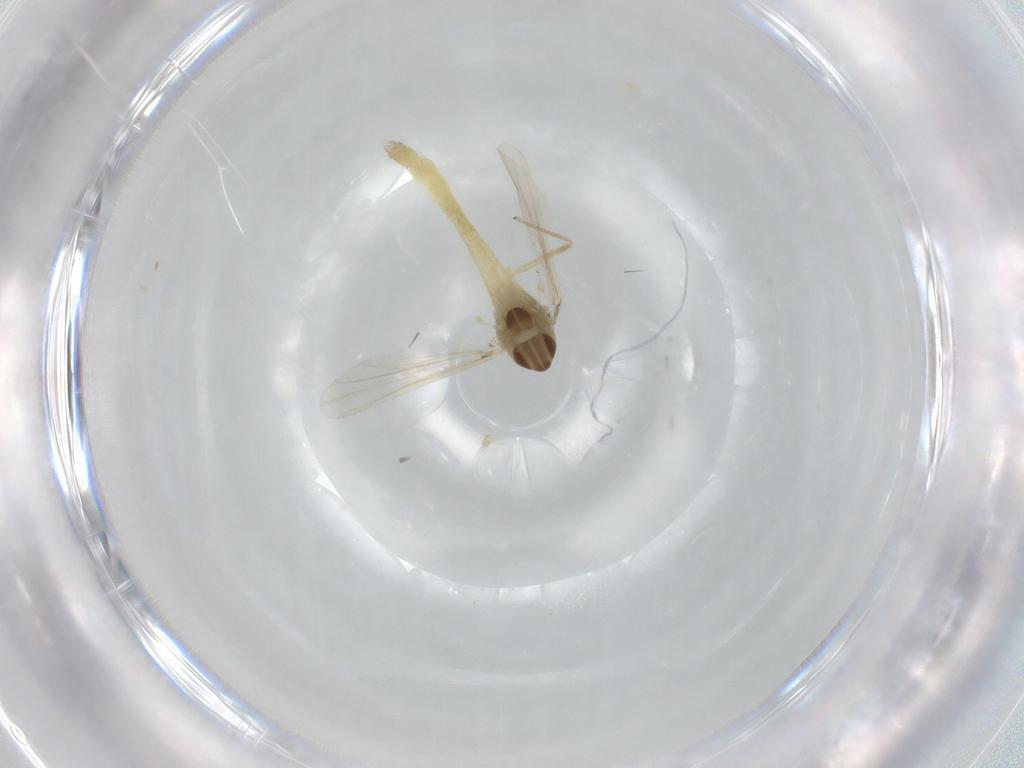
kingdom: Animalia
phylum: Arthropoda
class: Insecta
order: Diptera
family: Chironomidae
